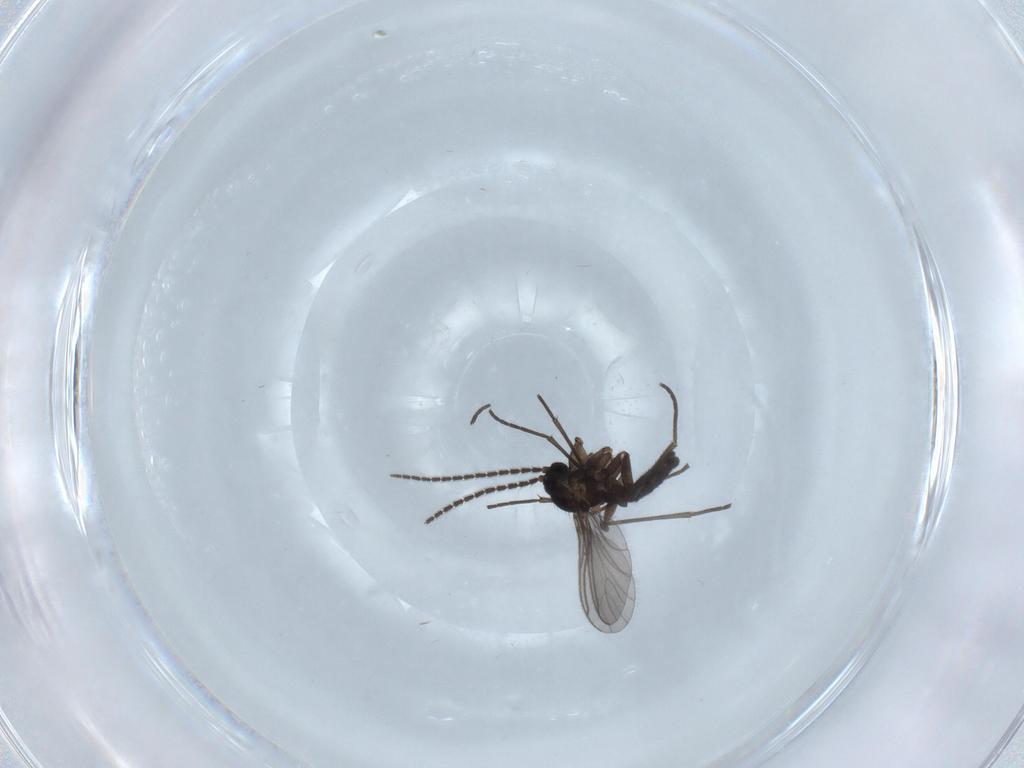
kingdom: Animalia
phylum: Arthropoda
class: Insecta
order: Diptera
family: Sciaridae
